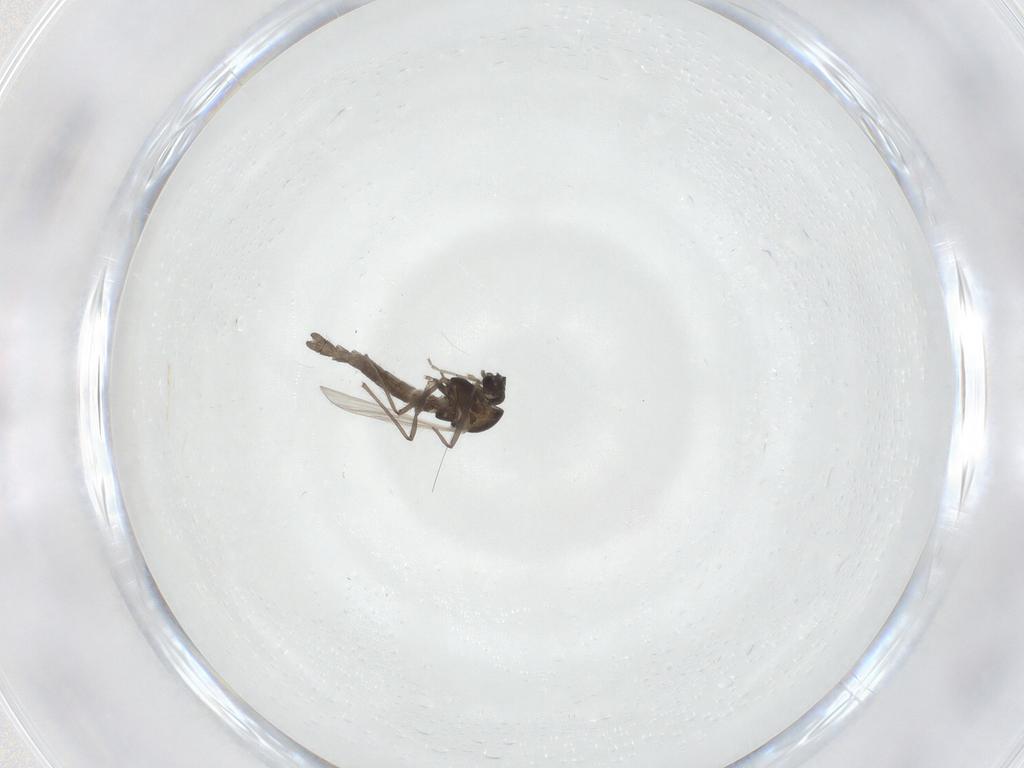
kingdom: Animalia
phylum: Arthropoda
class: Insecta
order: Diptera
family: Chironomidae
